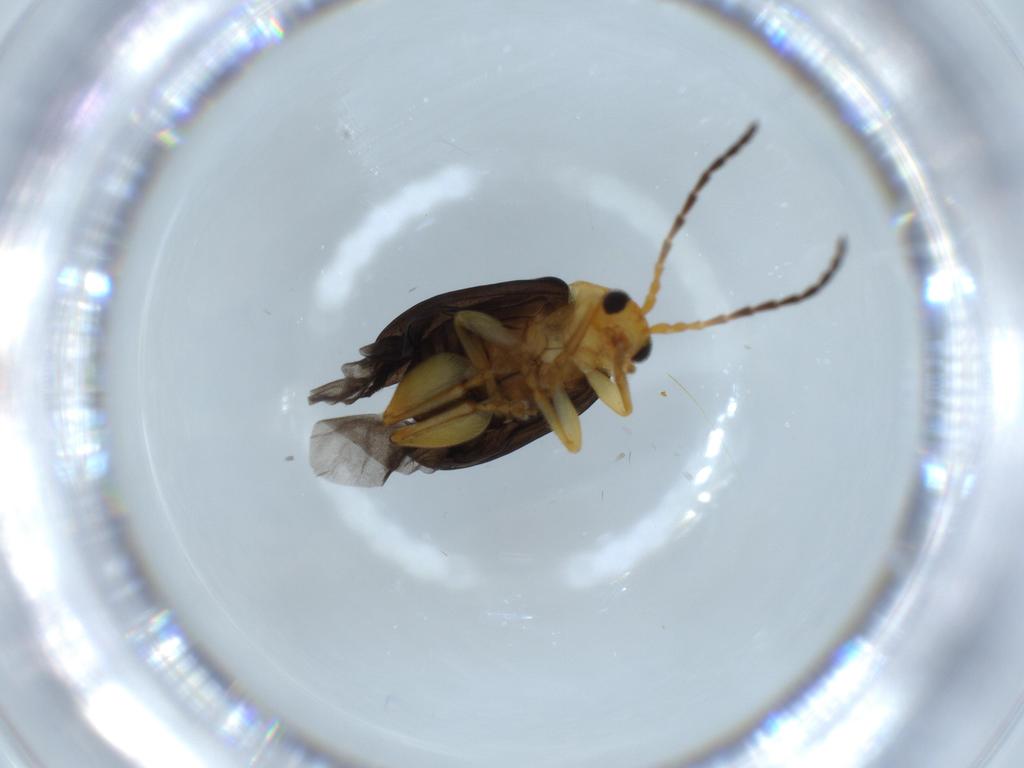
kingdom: Animalia
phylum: Arthropoda
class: Insecta
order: Coleoptera
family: Chrysomelidae
